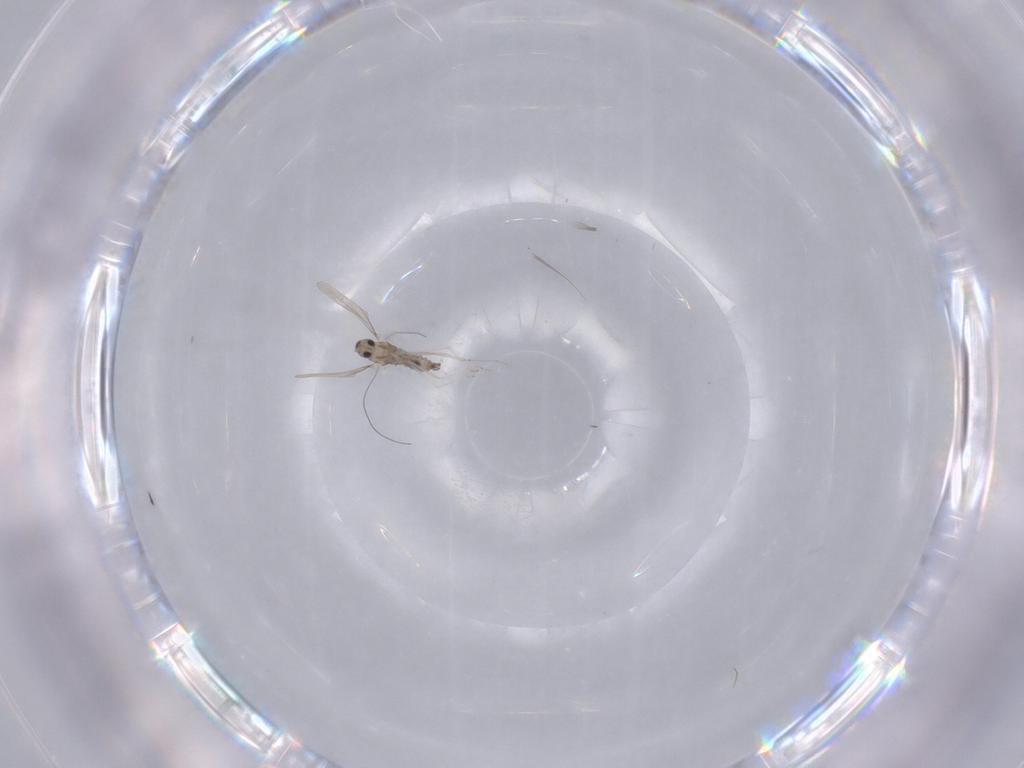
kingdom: Animalia
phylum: Arthropoda
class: Insecta
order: Diptera
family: Cecidomyiidae
